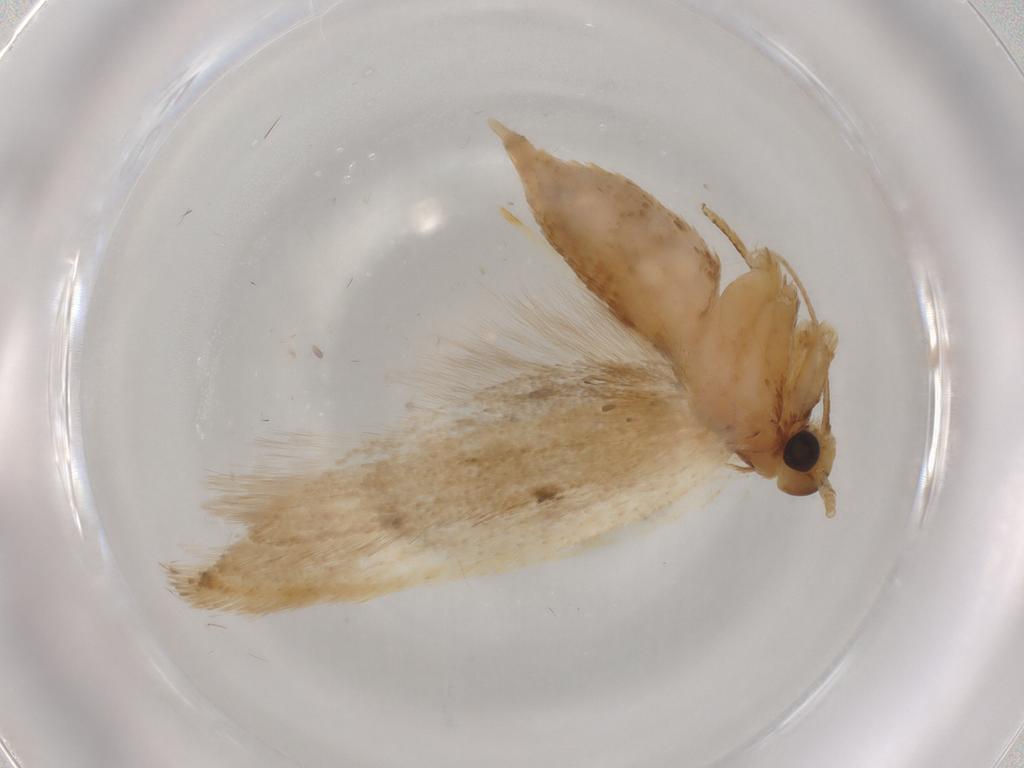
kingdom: Animalia
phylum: Arthropoda
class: Insecta
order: Lepidoptera
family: Lecithoceridae
